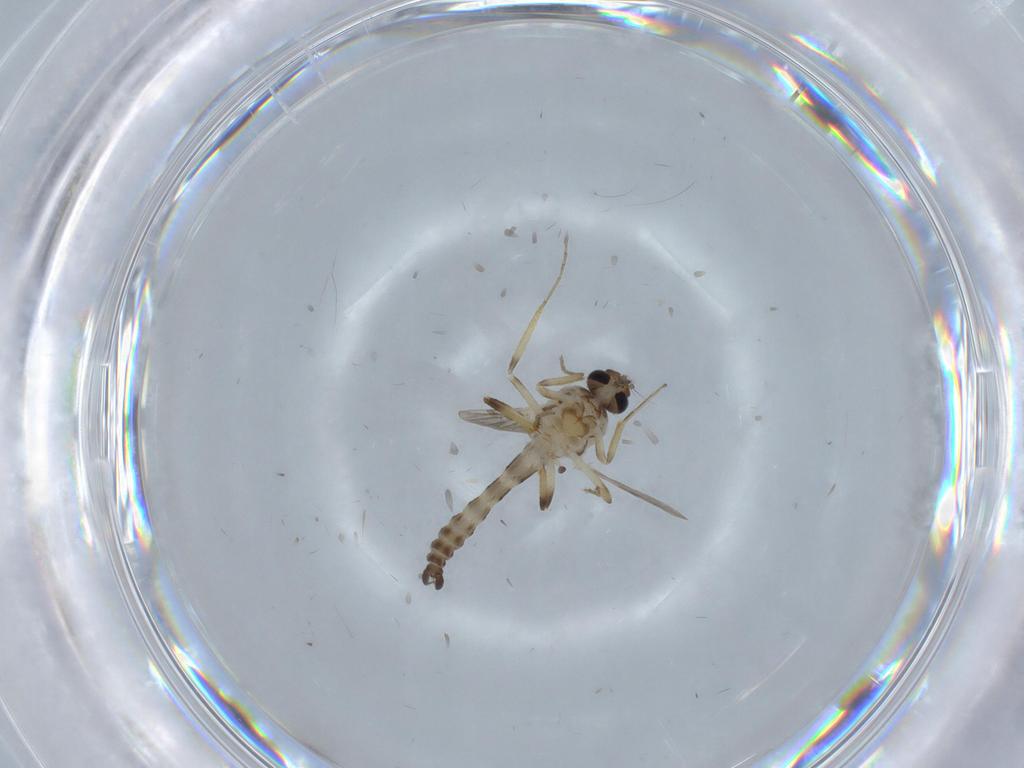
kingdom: Animalia
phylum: Arthropoda
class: Insecta
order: Diptera
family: Ceratopogonidae
